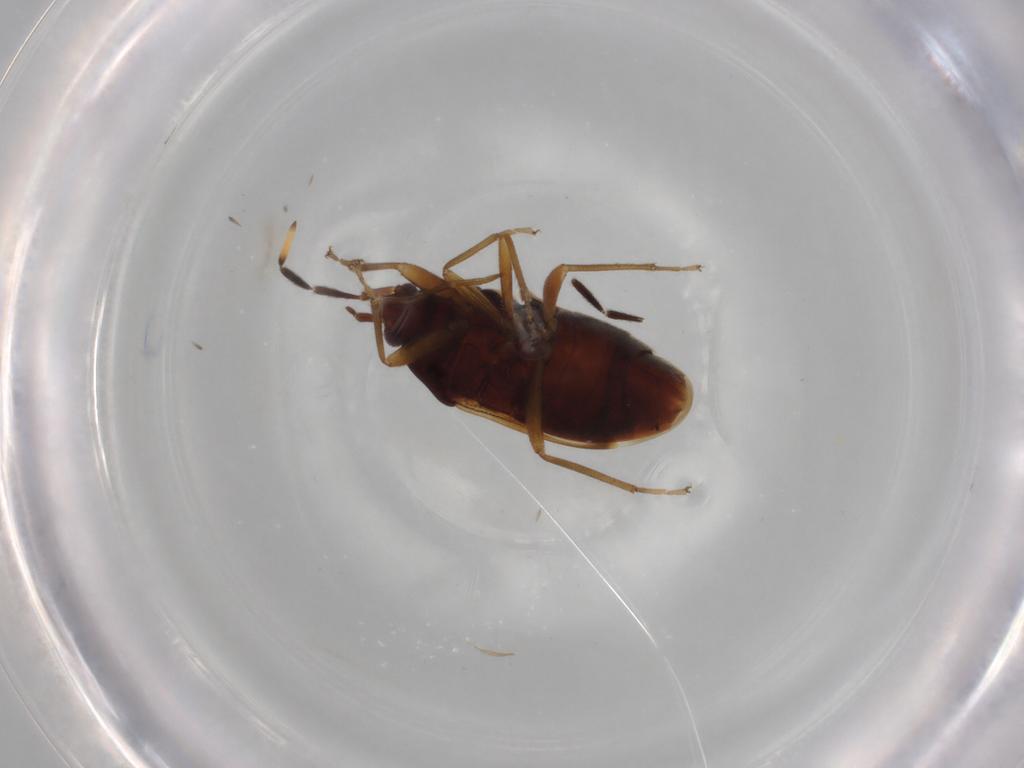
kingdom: Animalia
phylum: Arthropoda
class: Insecta
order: Hemiptera
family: Rhyparochromidae
